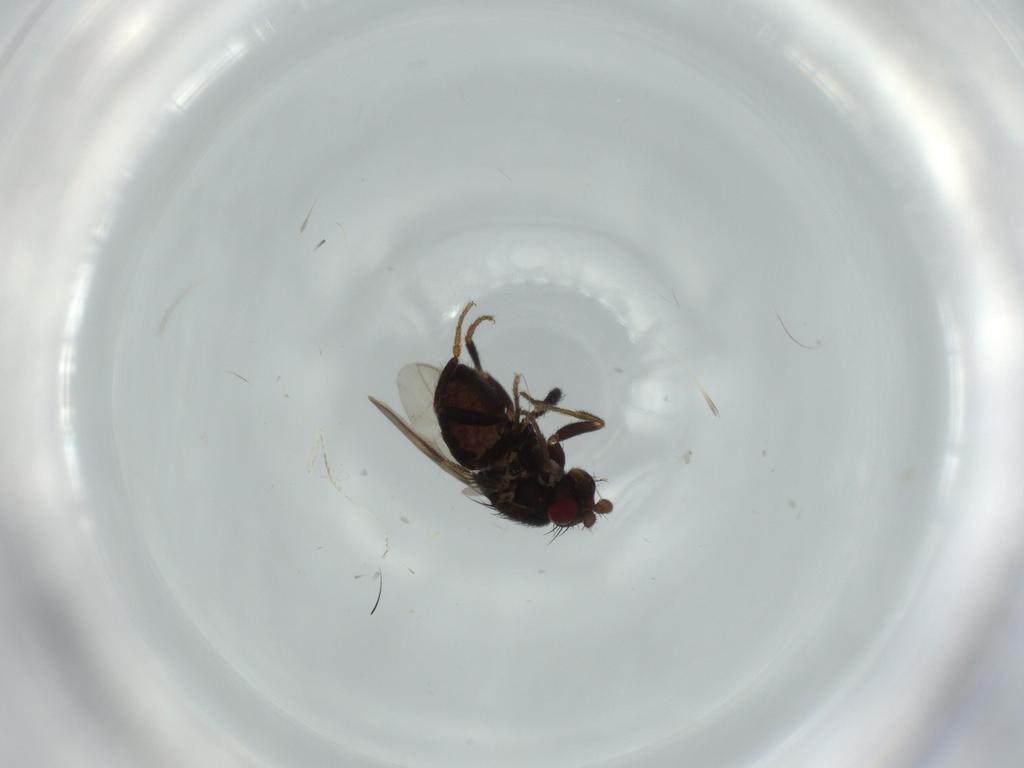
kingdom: Animalia
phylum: Arthropoda
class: Insecta
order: Diptera
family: Sphaeroceridae
